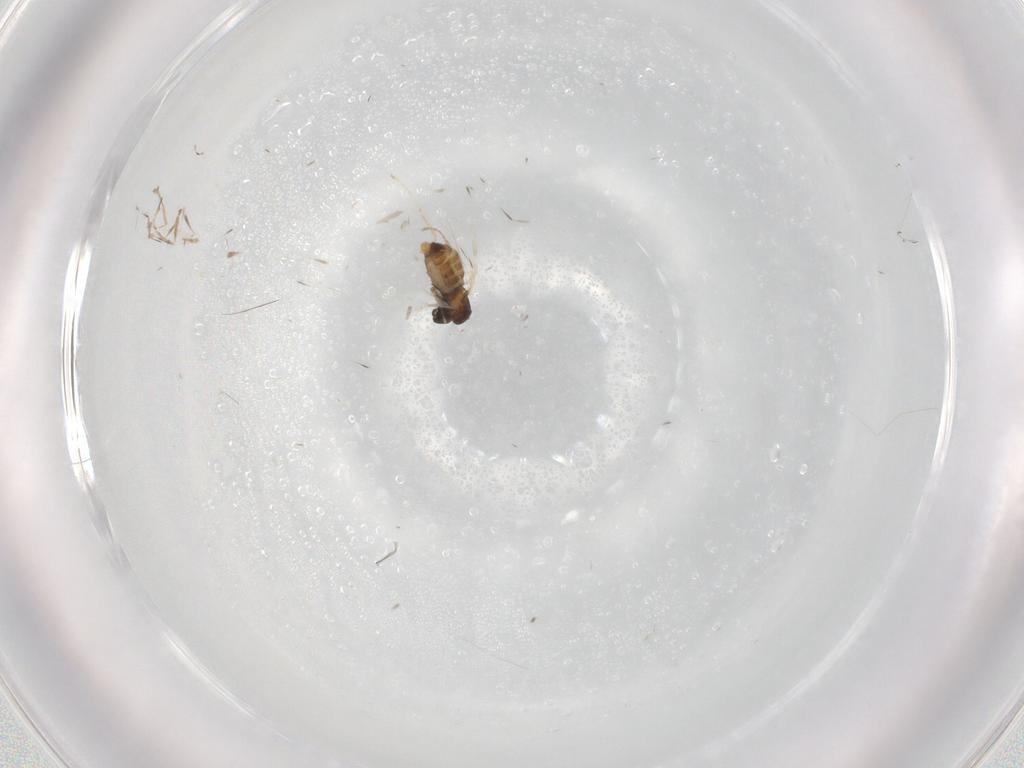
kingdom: Animalia
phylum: Arthropoda
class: Insecta
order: Diptera
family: Cecidomyiidae
